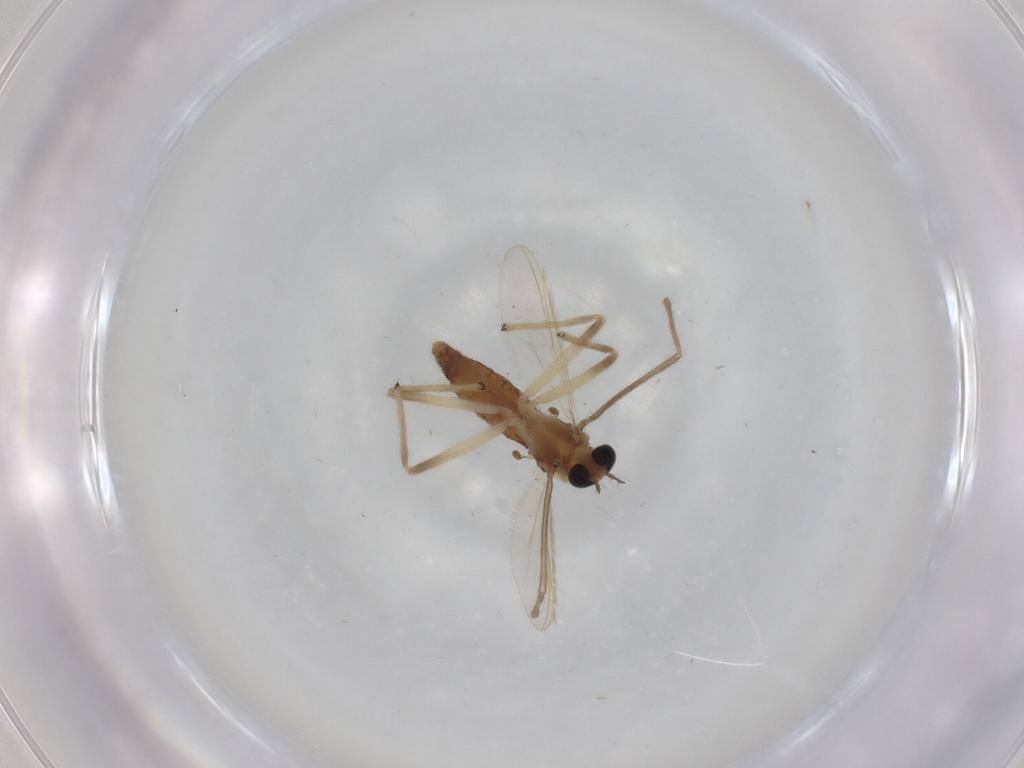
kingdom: Animalia
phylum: Arthropoda
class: Insecta
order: Diptera
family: Chironomidae
